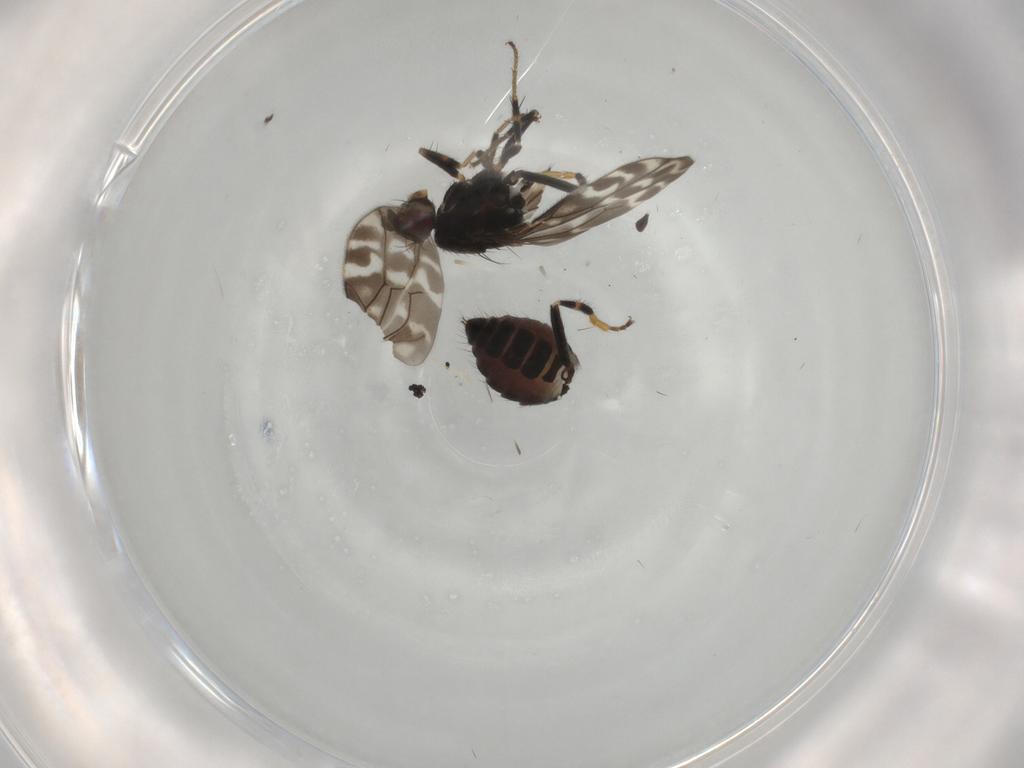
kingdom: Animalia
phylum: Arthropoda
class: Insecta
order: Diptera
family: Sphaeroceridae
